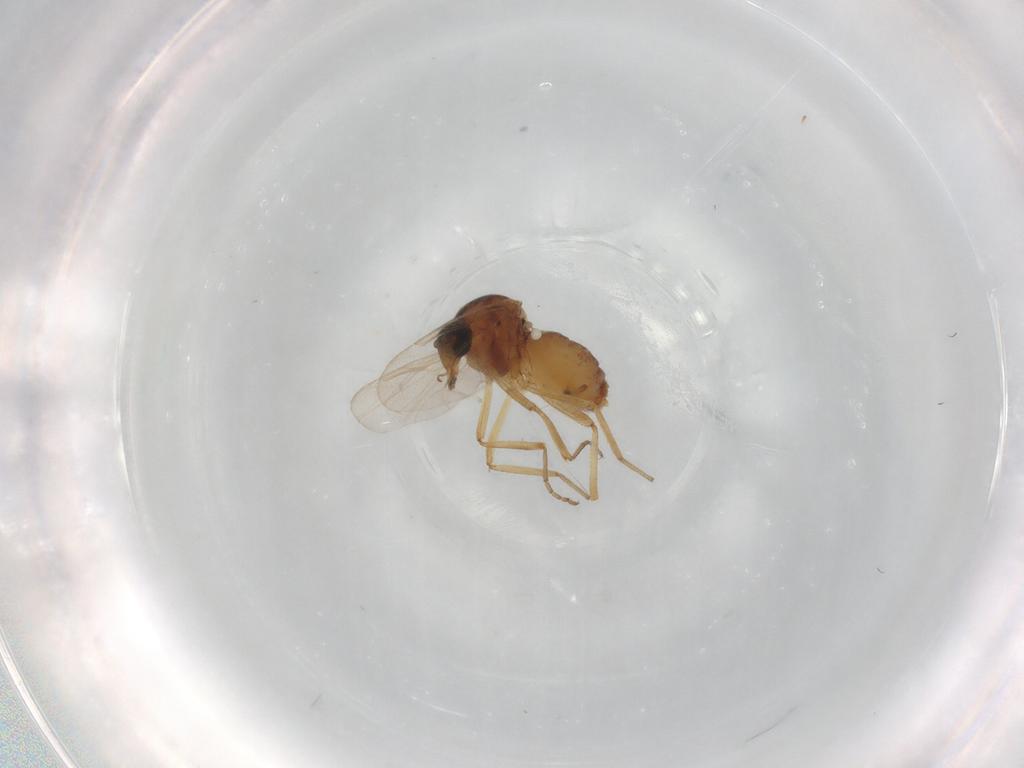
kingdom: Animalia
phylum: Arthropoda
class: Insecta
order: Diptera
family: Ceratopogonidae
